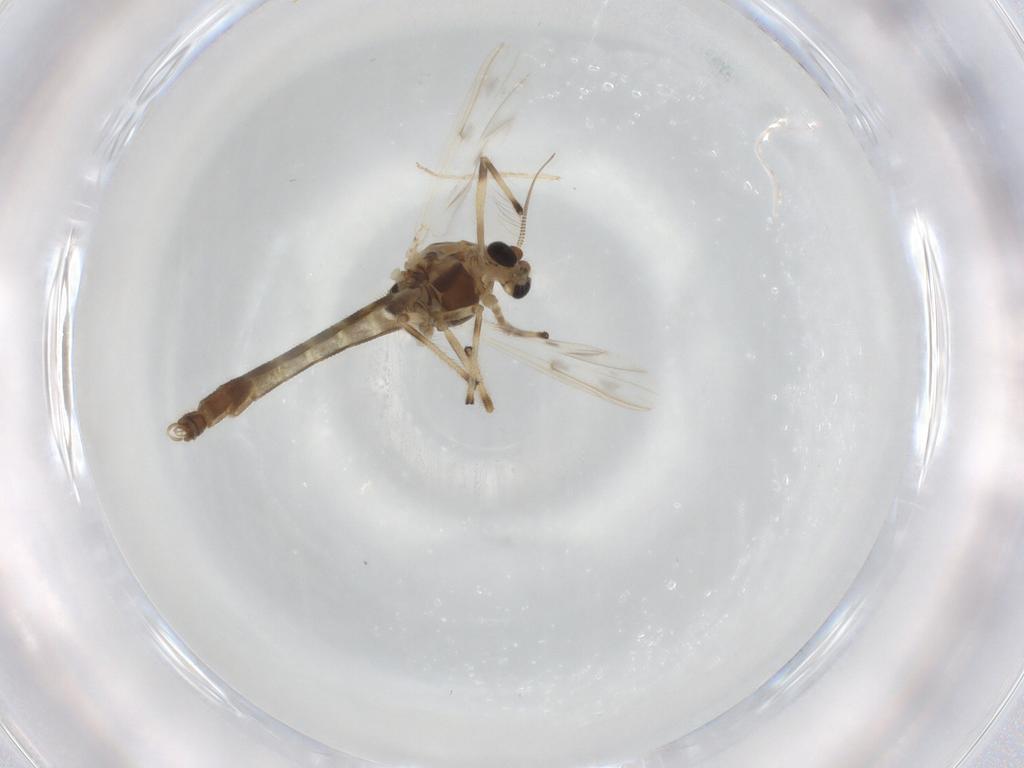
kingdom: Animalia
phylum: Arthropoda
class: Insecta
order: Diptera
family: Chironomidae
